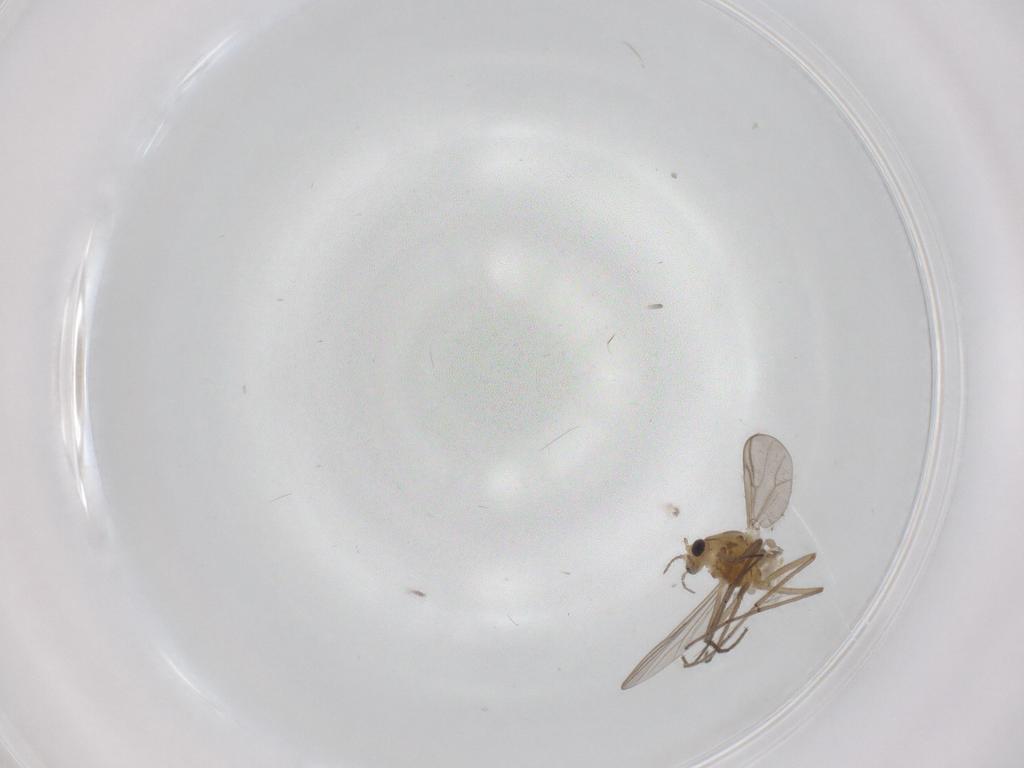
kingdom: Animalia
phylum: Arthropoda
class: Insecta
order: Diptera
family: Chironomidae
